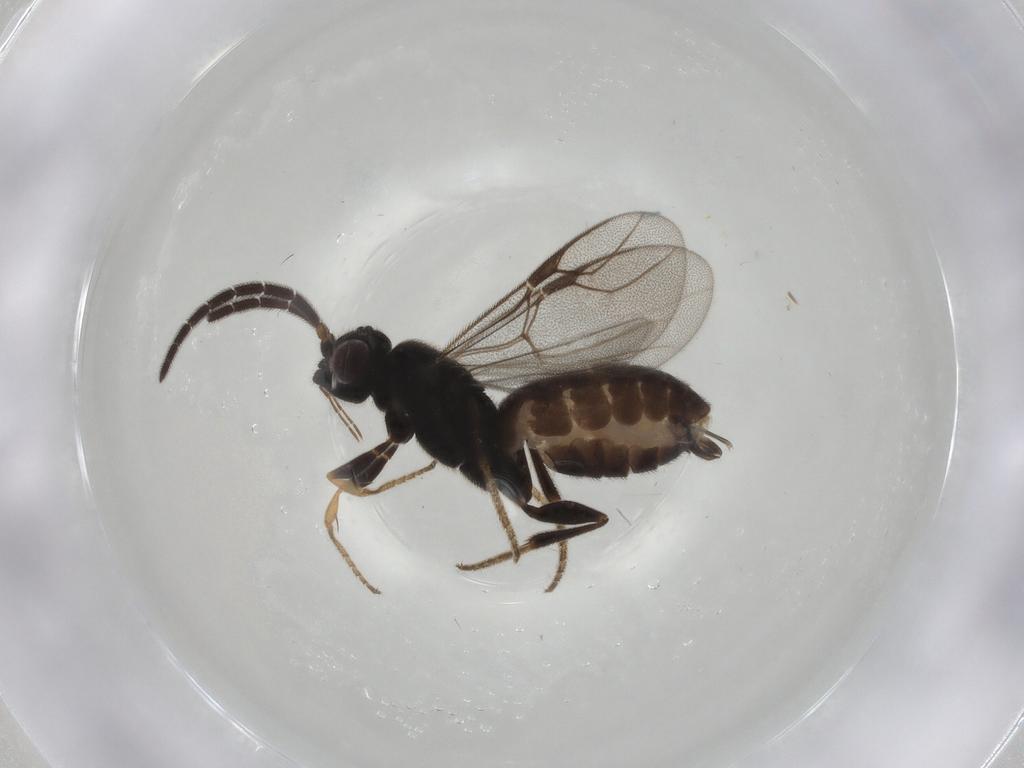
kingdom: Animalia
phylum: Arthropoda
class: Insecta
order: Hymenoptera
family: Dryinidae
